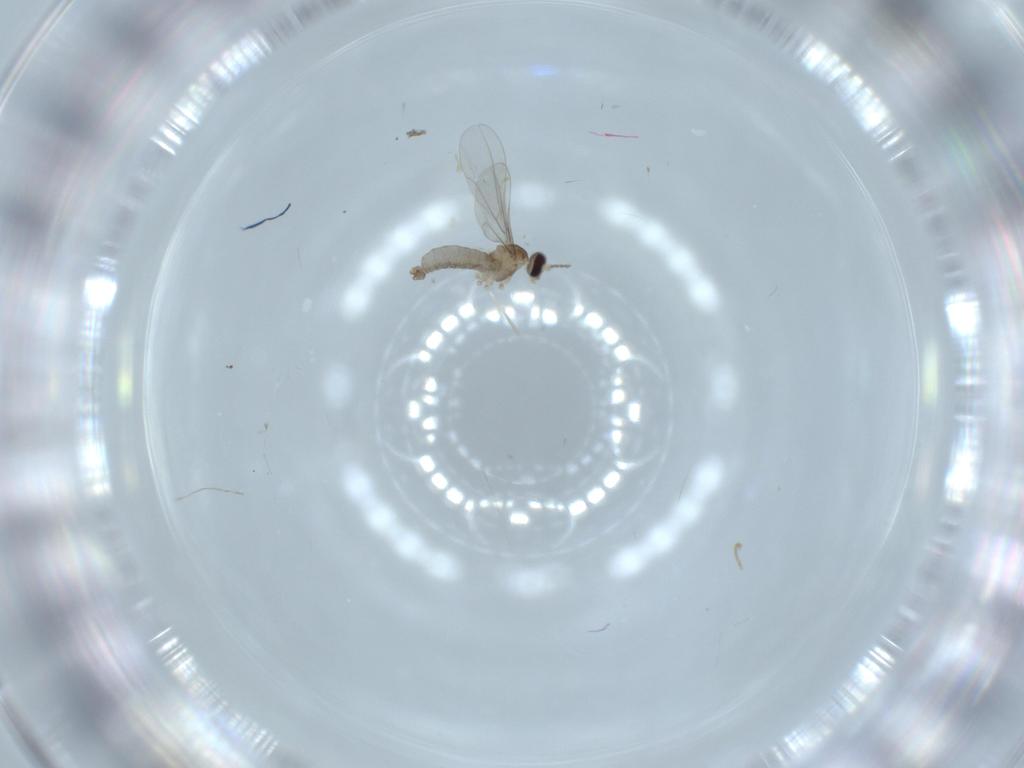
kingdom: Animalia
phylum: Arthropoda
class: Insecta
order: Diptera
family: Cecidomyiidae
